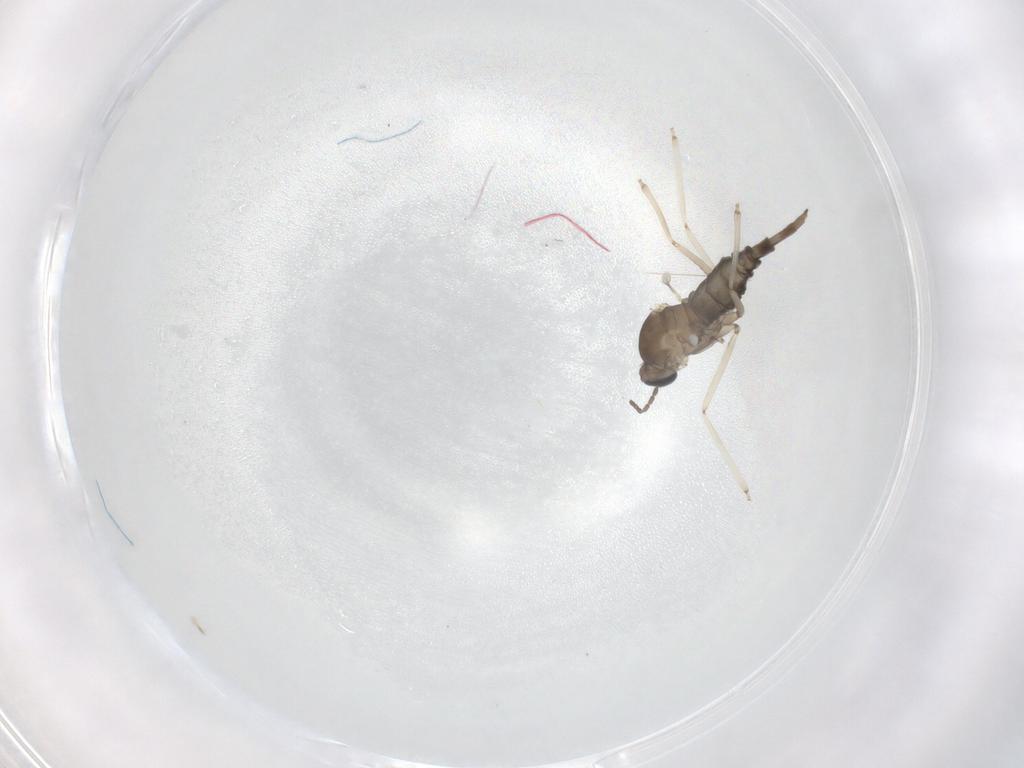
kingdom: Animalia
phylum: Arthropoda
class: Insecta
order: Diptera
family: Cecidomyiidae
